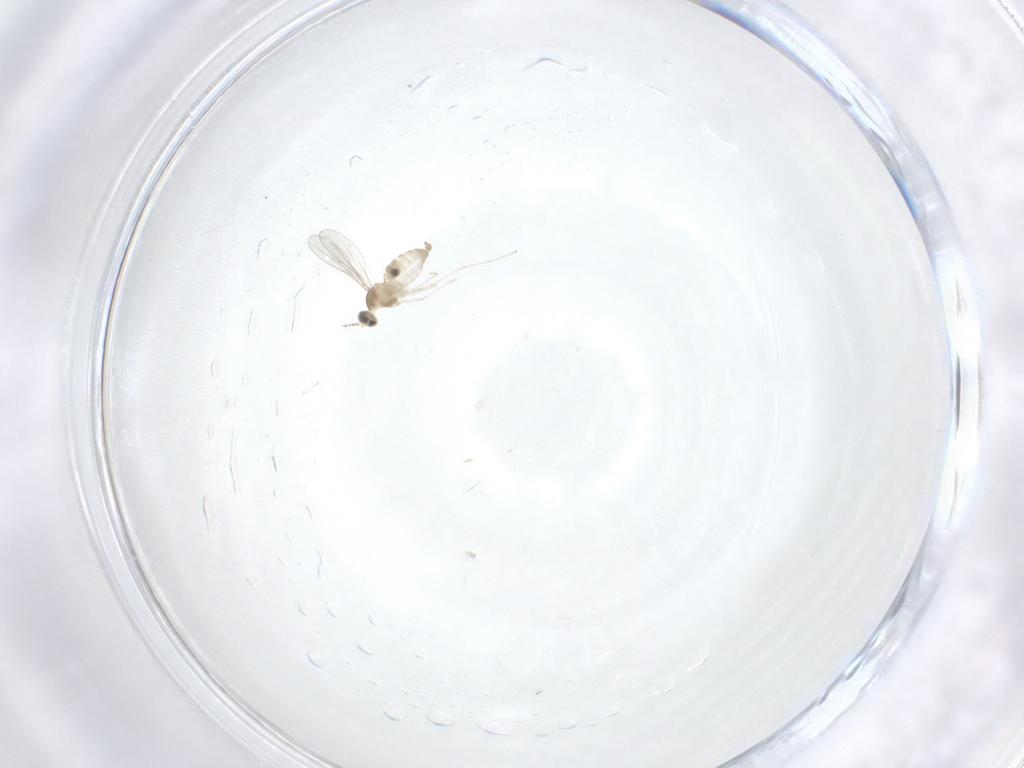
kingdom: Animalia
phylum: Arthropoda
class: Insecta
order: Diptera
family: Cecidomyiidae
